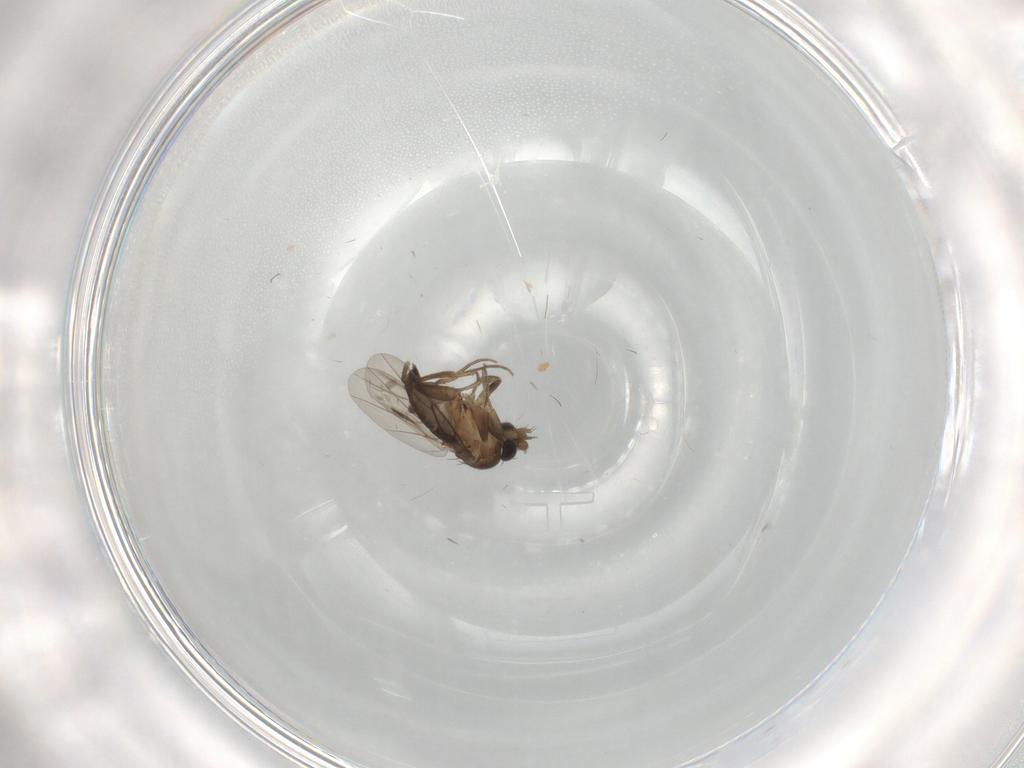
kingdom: Animalia
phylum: Arthropoda
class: Insecta
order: Diptera
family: Phoridae
